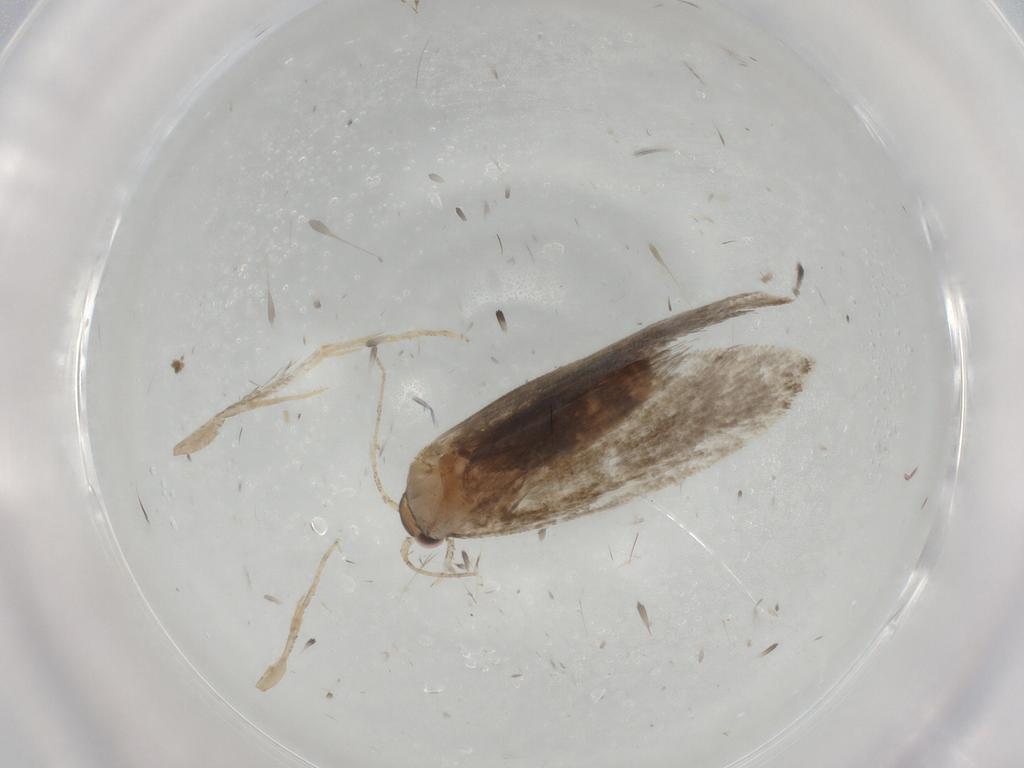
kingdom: Animalia
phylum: Arthropoda
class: Insecta
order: Lepidoptera
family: Tineidae
